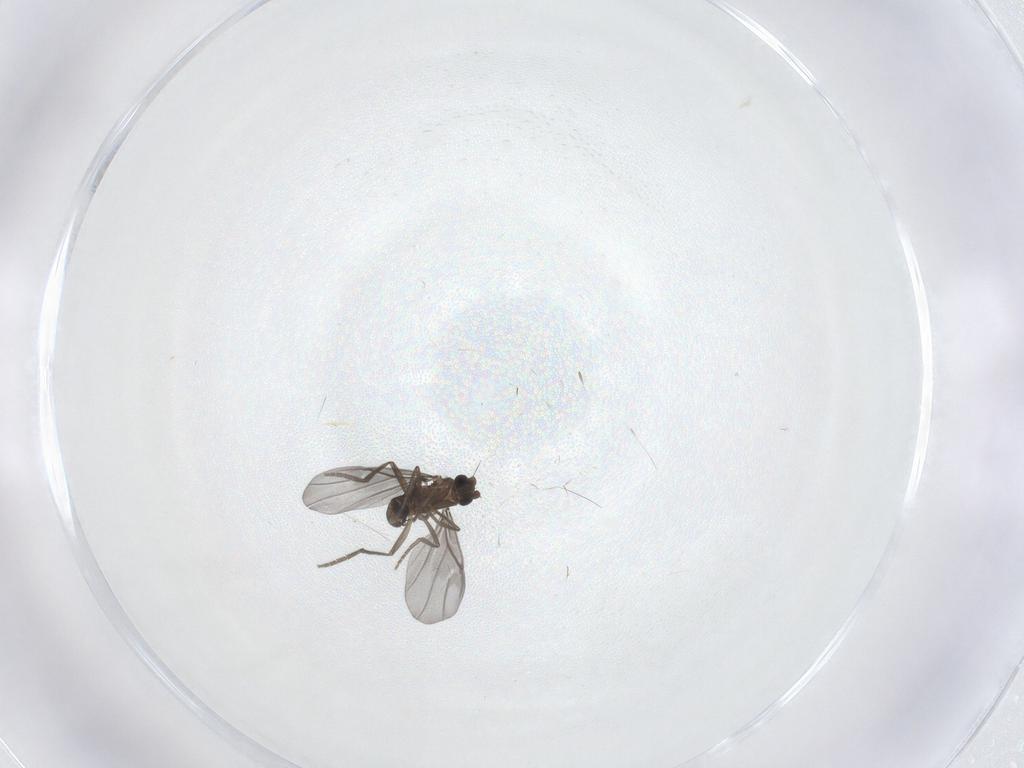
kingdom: Animalia
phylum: Arthropoda
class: Insecta
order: Diptera
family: Phoridae
